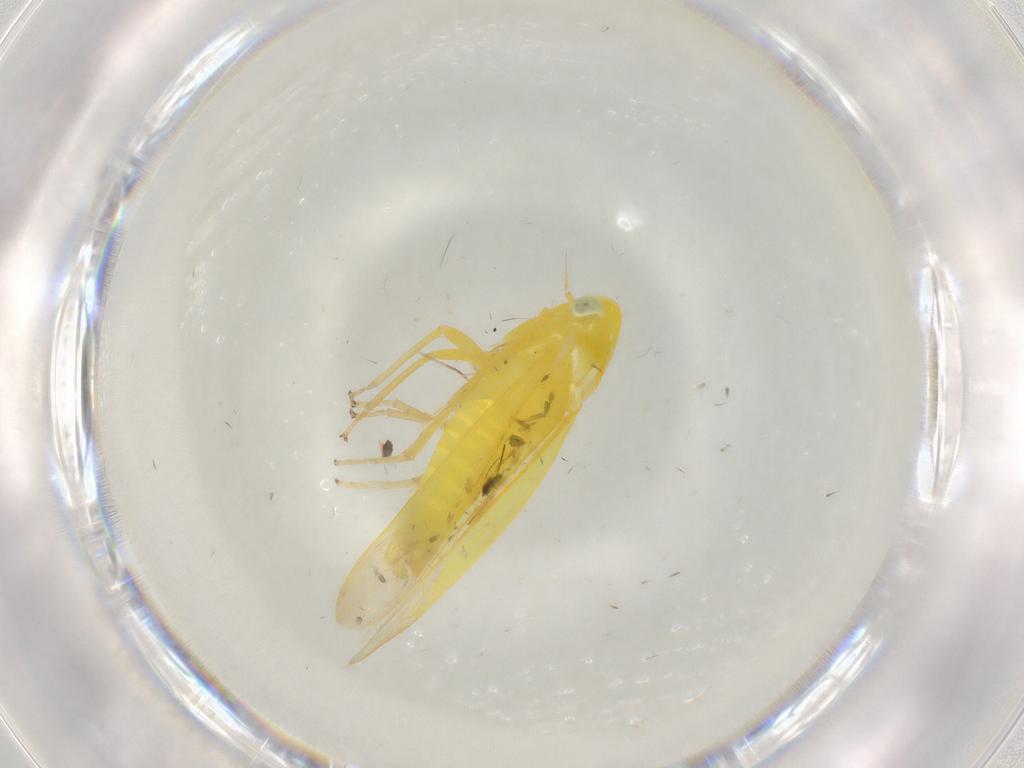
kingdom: Animalia
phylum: Arthropoda
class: Insecta
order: Hemiptera
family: Cicadellidae
